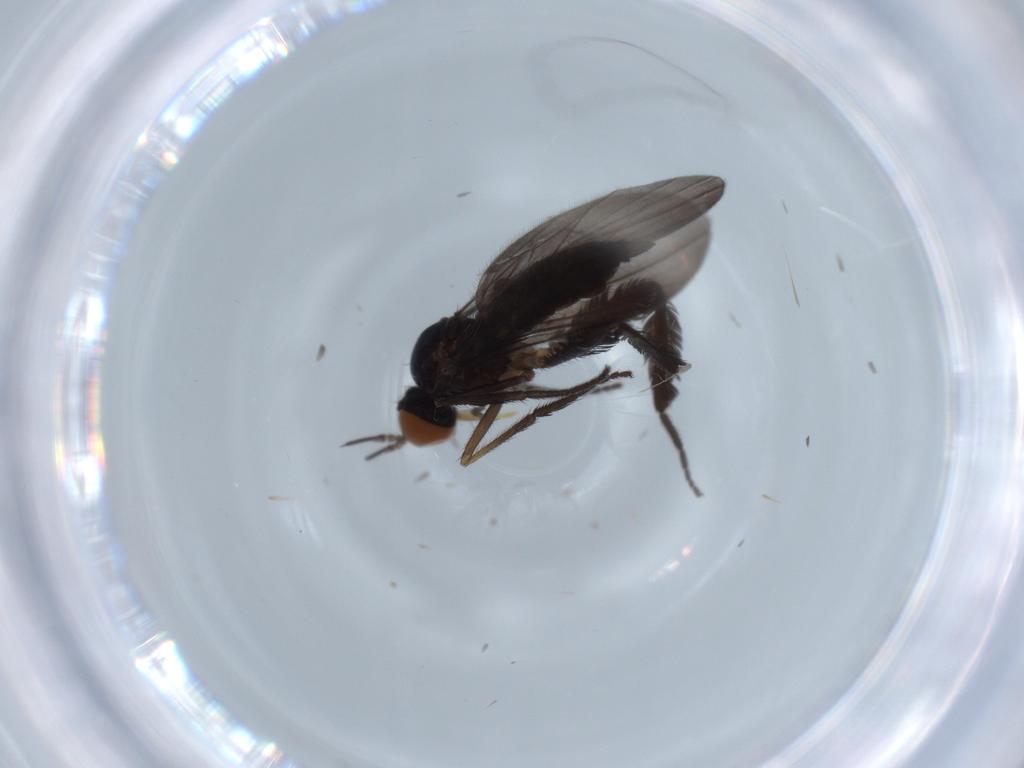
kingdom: Animalia
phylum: Arthropoda
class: Insecta
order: Diptera
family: Empididae
